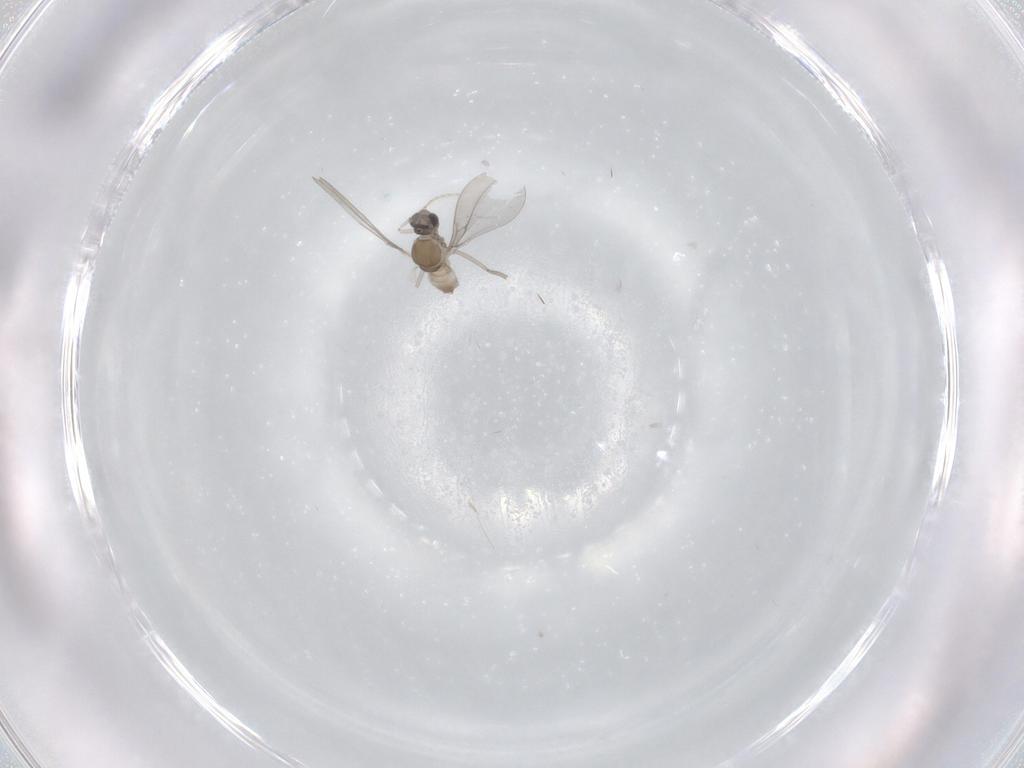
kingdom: Animalia
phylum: Arthropoda
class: Insecta
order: Diptera
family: Cecidomyiidae
